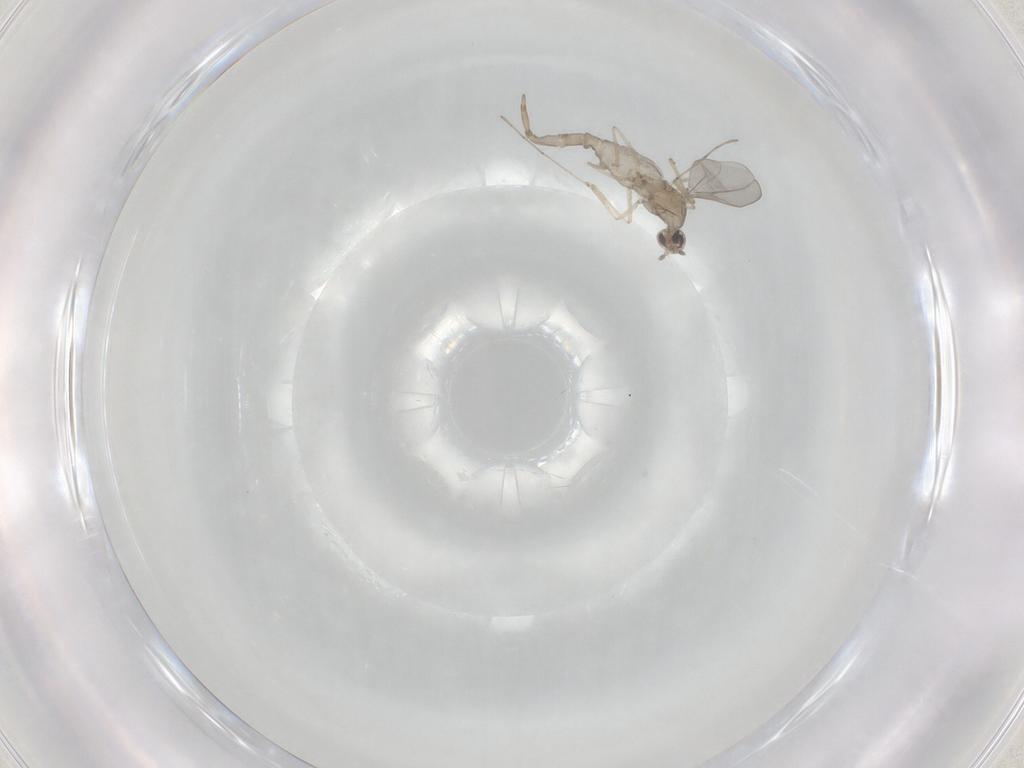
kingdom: Animalia
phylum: Arthropoda
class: Insecta
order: Diptera
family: Cecidomyiidae
